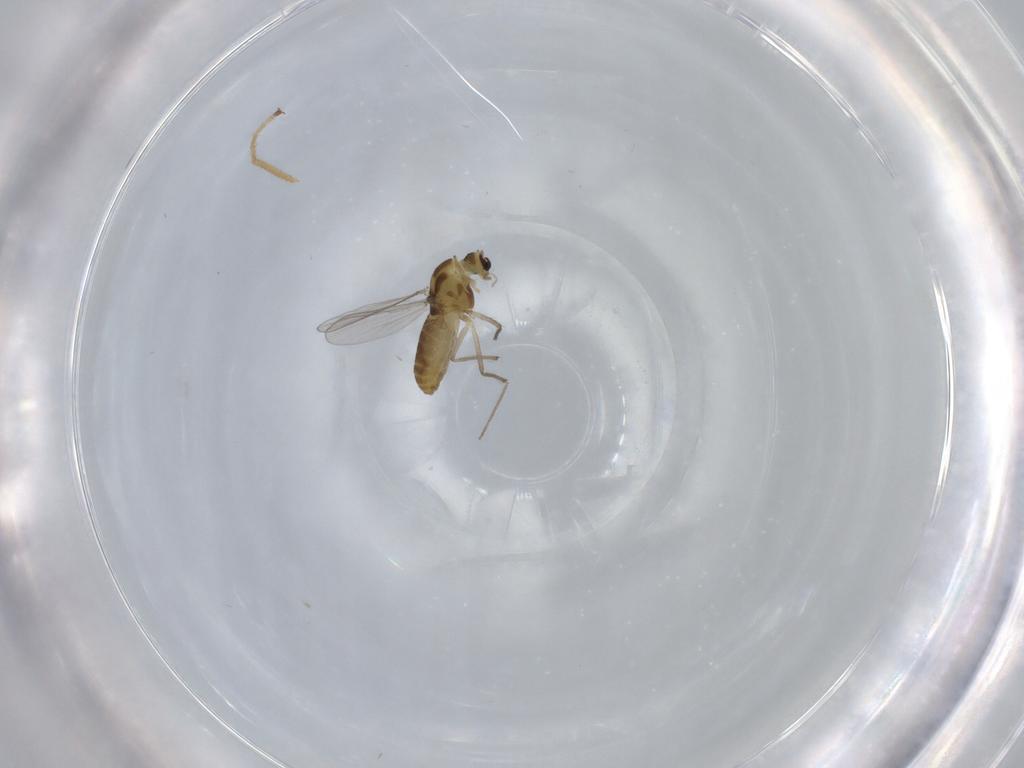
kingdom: Animalia
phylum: Arthropoda
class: Insecta
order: Diptera
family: Chironomidae
